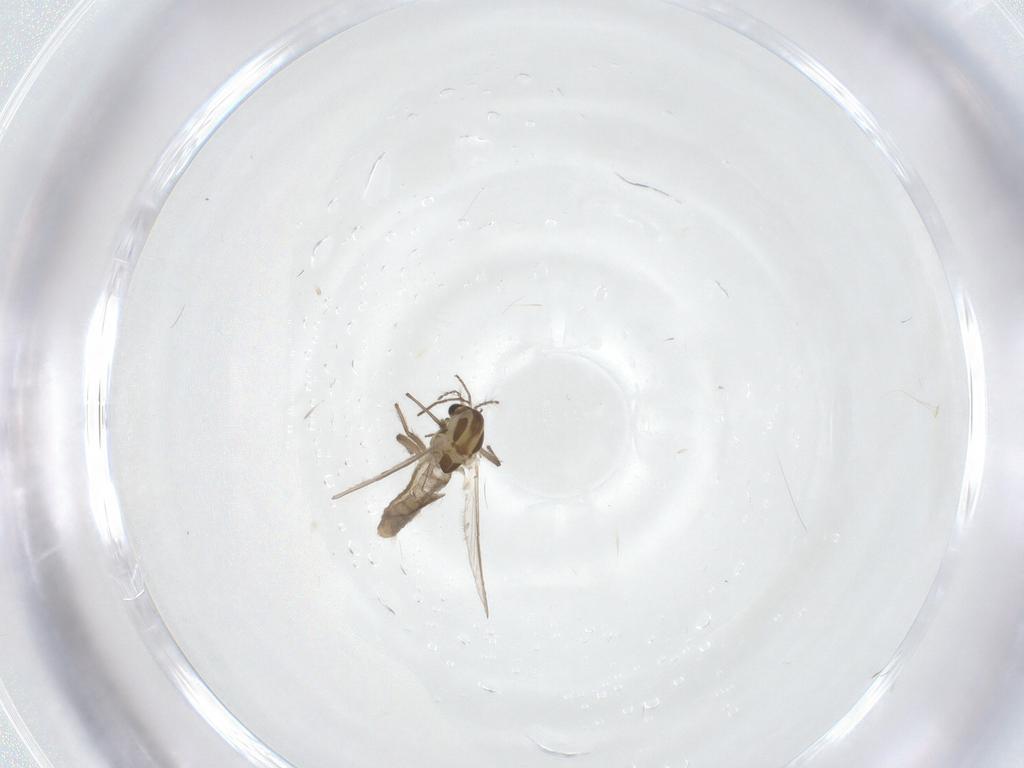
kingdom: Animalia
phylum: Arthropoda
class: Insecta
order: Diptera
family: Chironomidae
